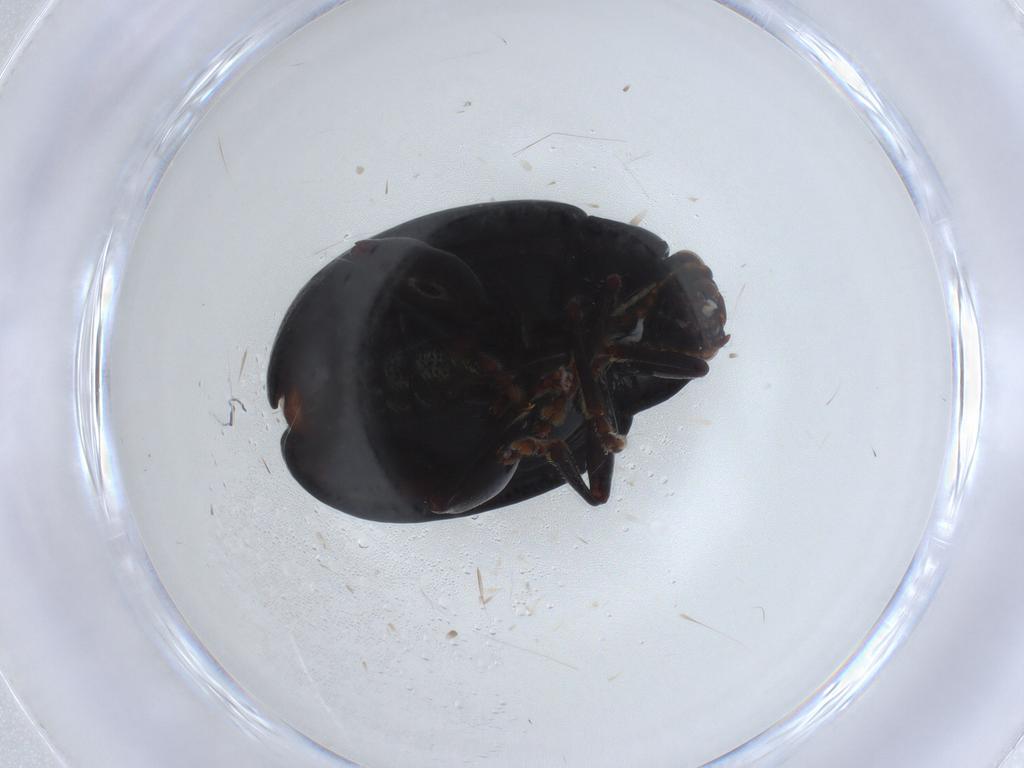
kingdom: Animalia
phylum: Arthropoda
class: Insecta
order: Coleoptera
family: Chrysomelidae
